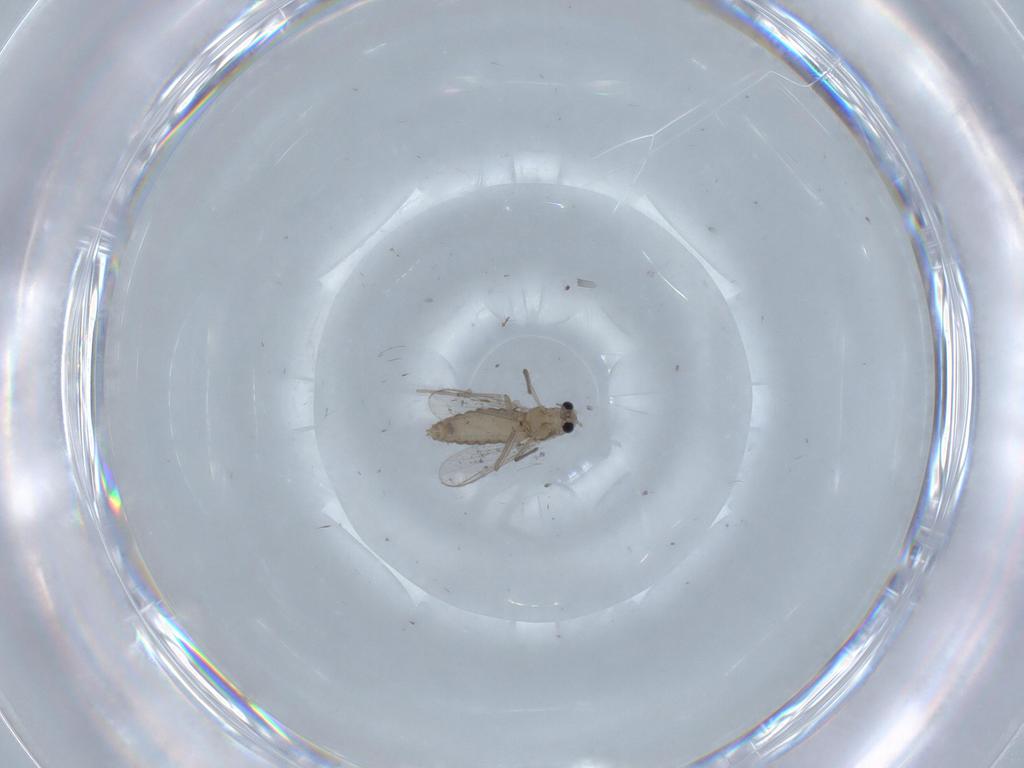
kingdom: Animalia
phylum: Arthropoda
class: Insecta
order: Diptera
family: Chironomidae
